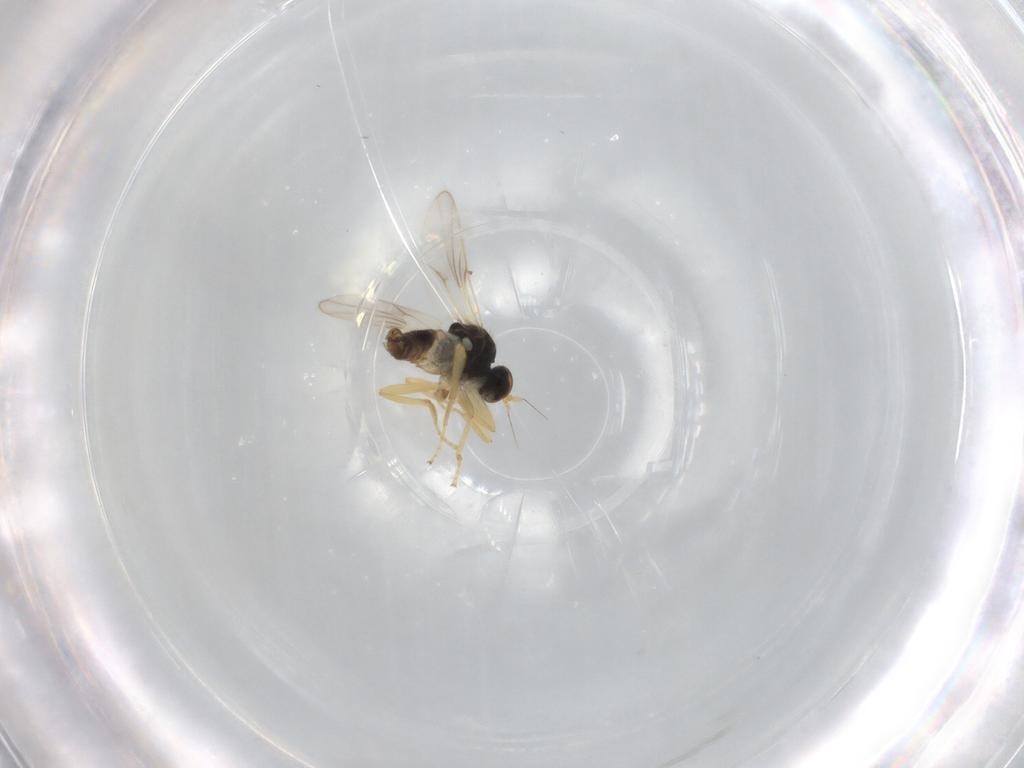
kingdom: Animalia
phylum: Arthropoda
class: Insecta
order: Diptera
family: Hybotidae
